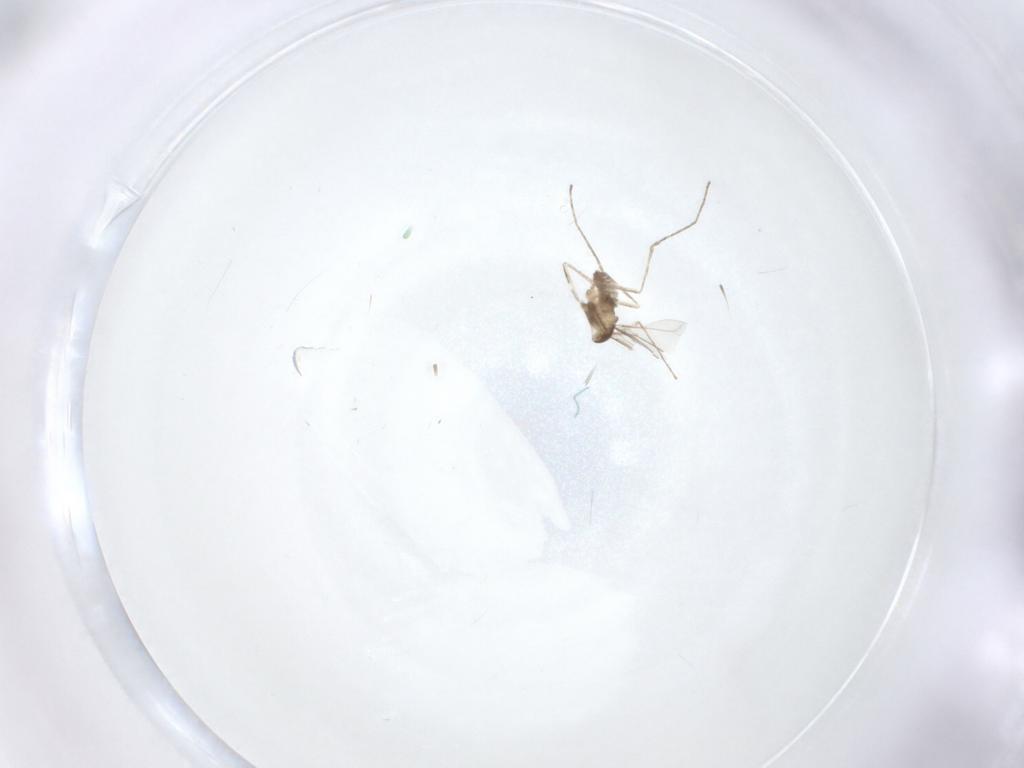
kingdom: Animalia
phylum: Arthropoda
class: Insecta
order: Diptera
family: Cecidomyiidae
